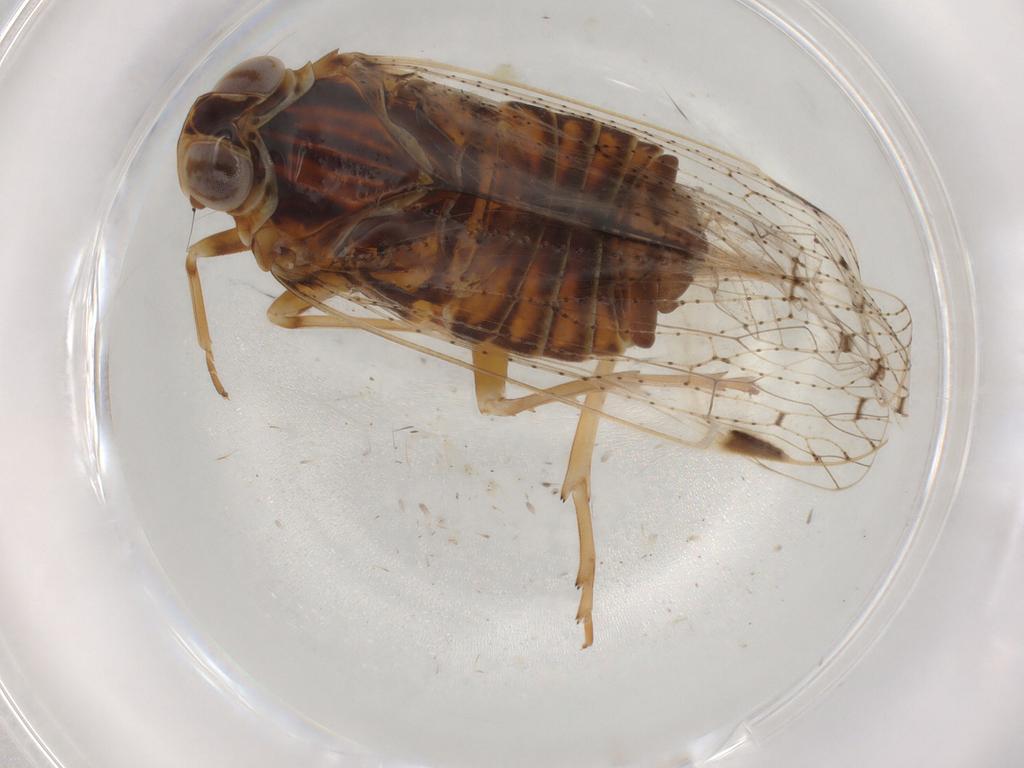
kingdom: Animalia
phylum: Arthropoda
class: Insecta
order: Hemiptera
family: Cixiidae
